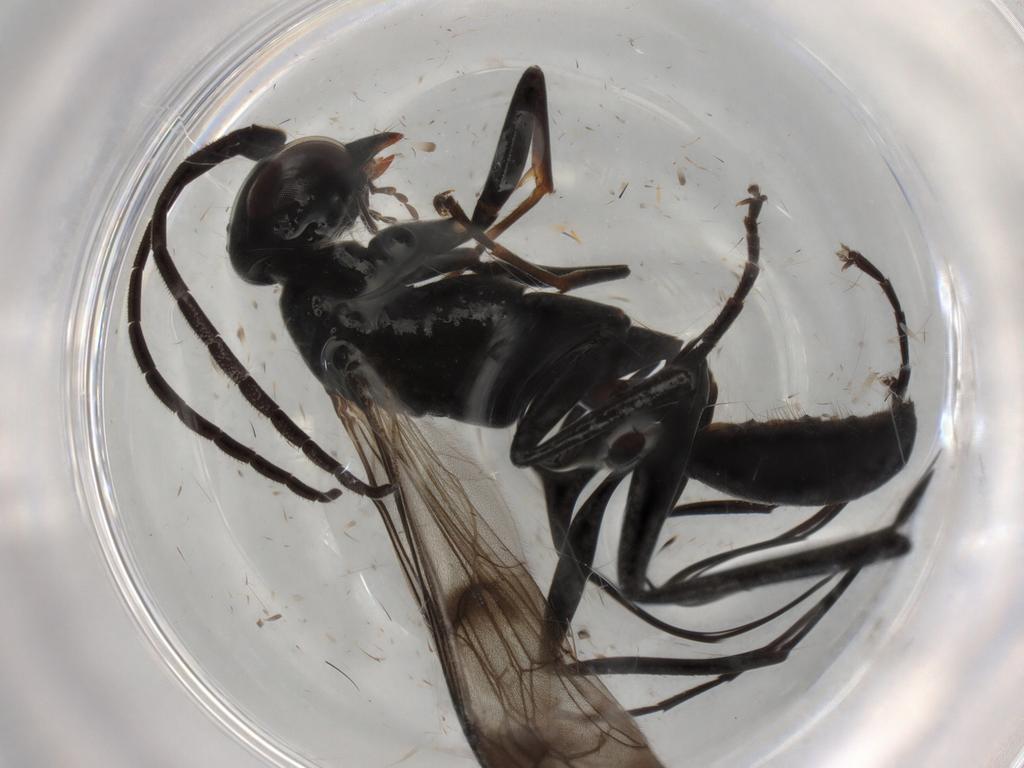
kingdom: Animalia
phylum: Arthropoda
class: Insecta
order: Hymenoptera
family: Pompilidae
